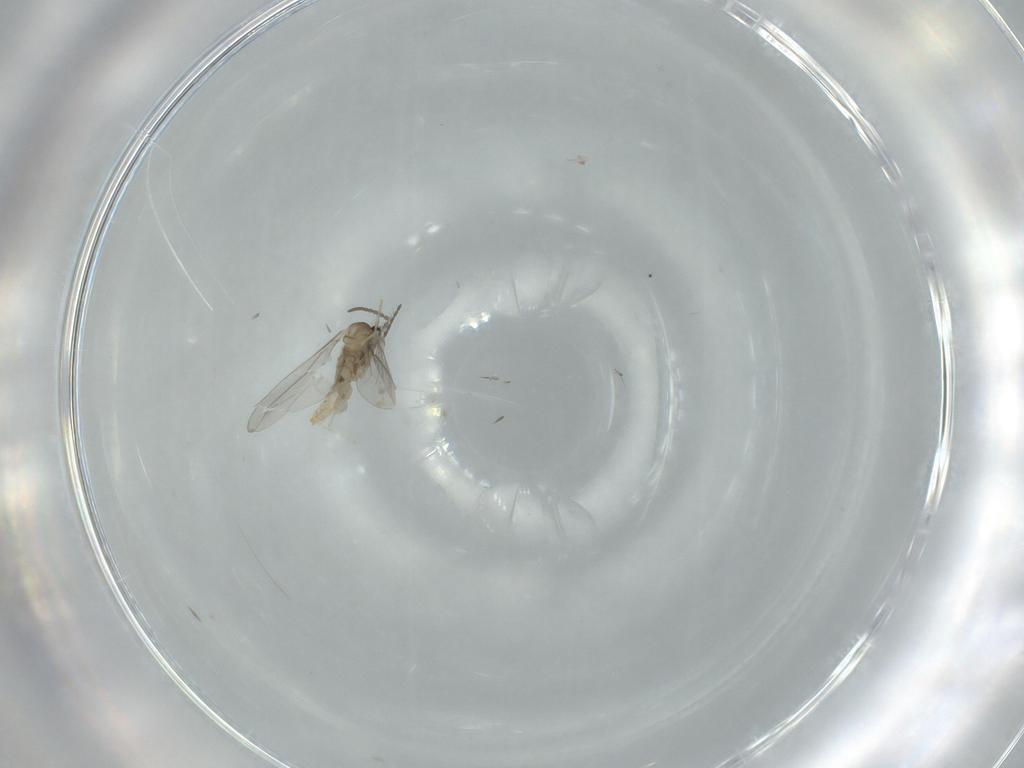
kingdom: Animalia
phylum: Arthropoda
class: Insecta
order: Diptera
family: Cecidomyiidae
